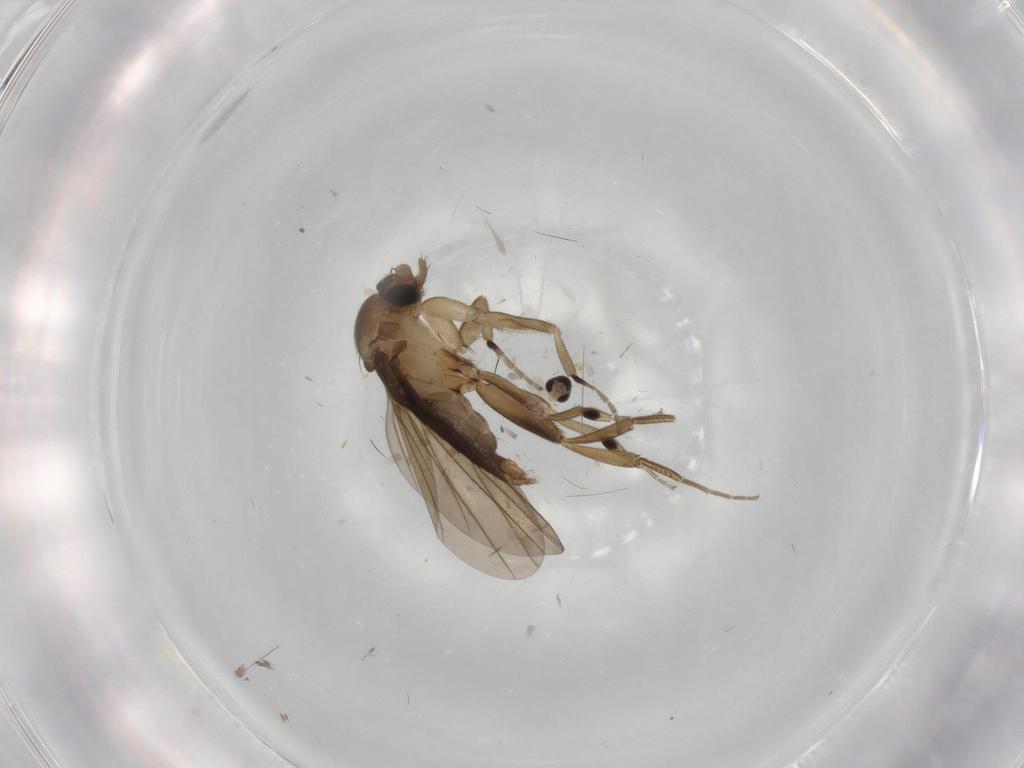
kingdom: Animalia
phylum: Arthropoda
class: Insecta
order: Diptera
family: Cecidomyiidae
